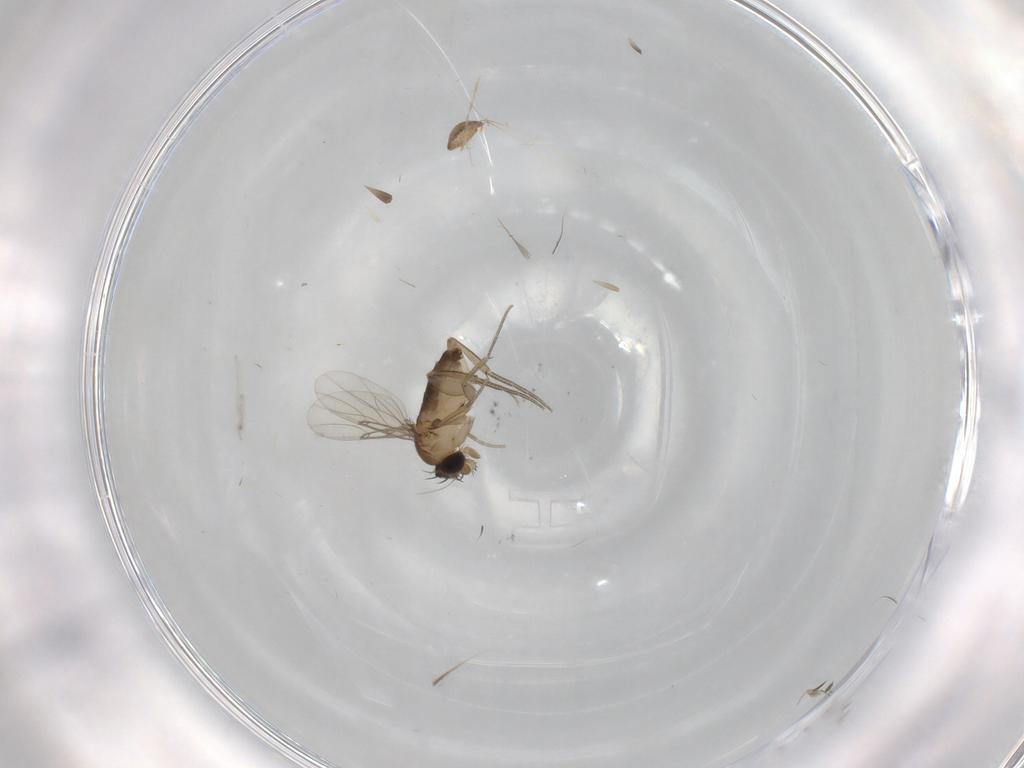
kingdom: Animalia
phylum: Arthropoda
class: Insecta
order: Diptera
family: Phoridae
